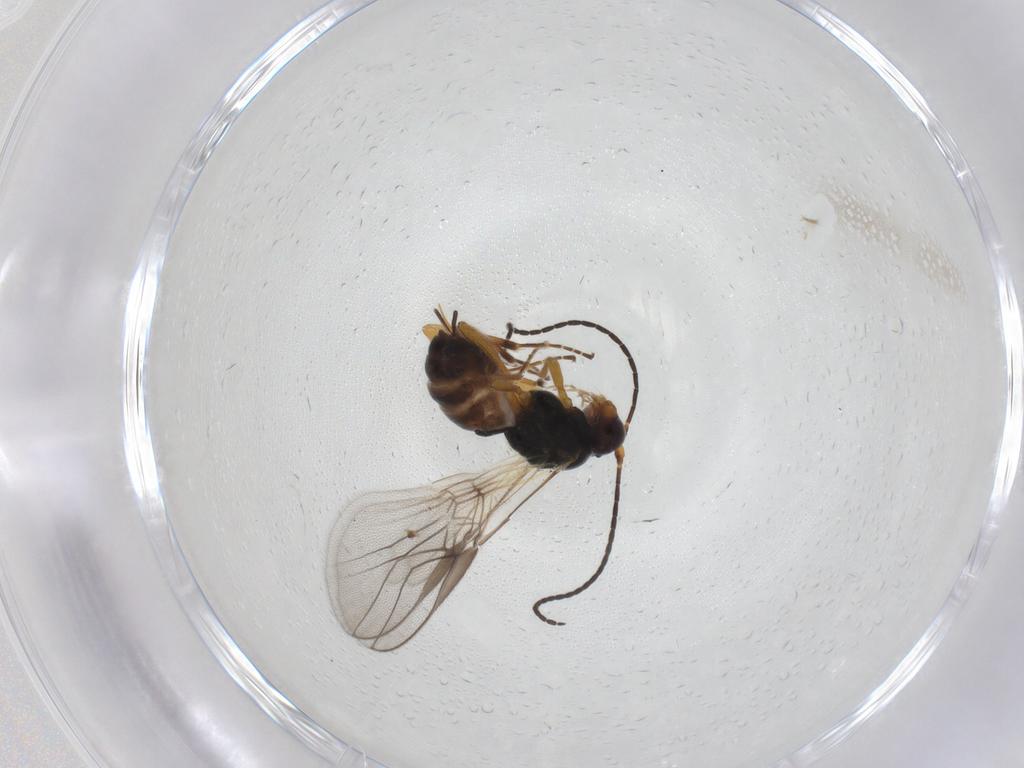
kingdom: Animalia
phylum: Arthropoda
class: Insecta
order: Hymenoptera
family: Braconidae
